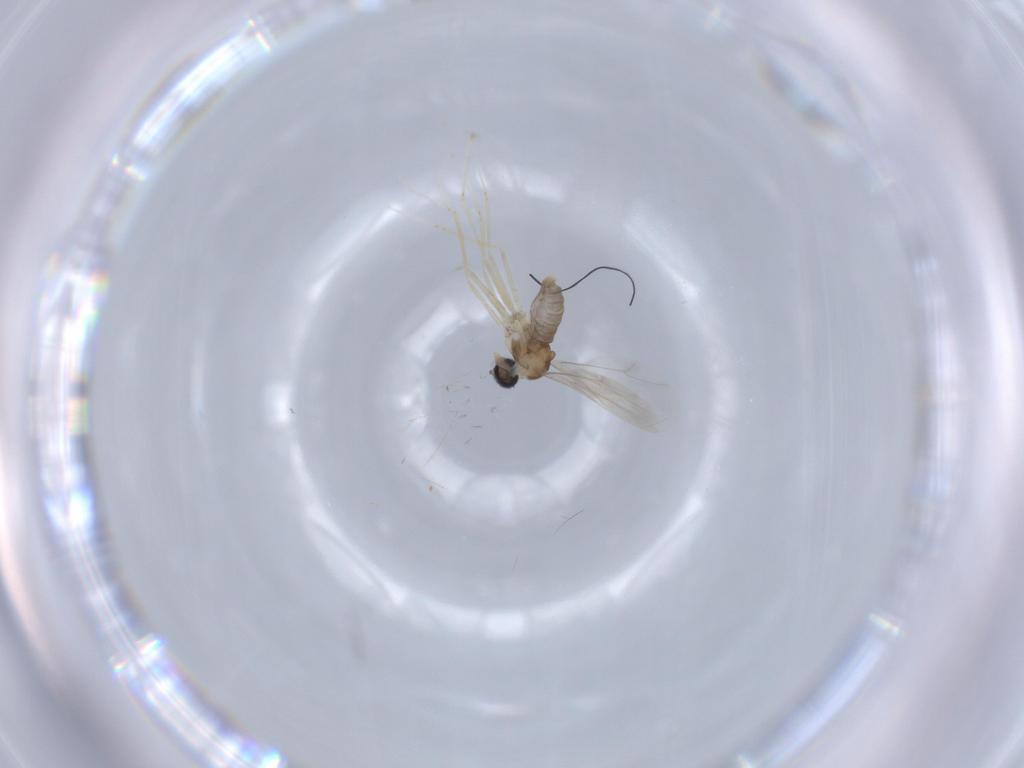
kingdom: Animalia
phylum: Arthropoda
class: Insecta
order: Diptera
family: Cecidomyiidae
